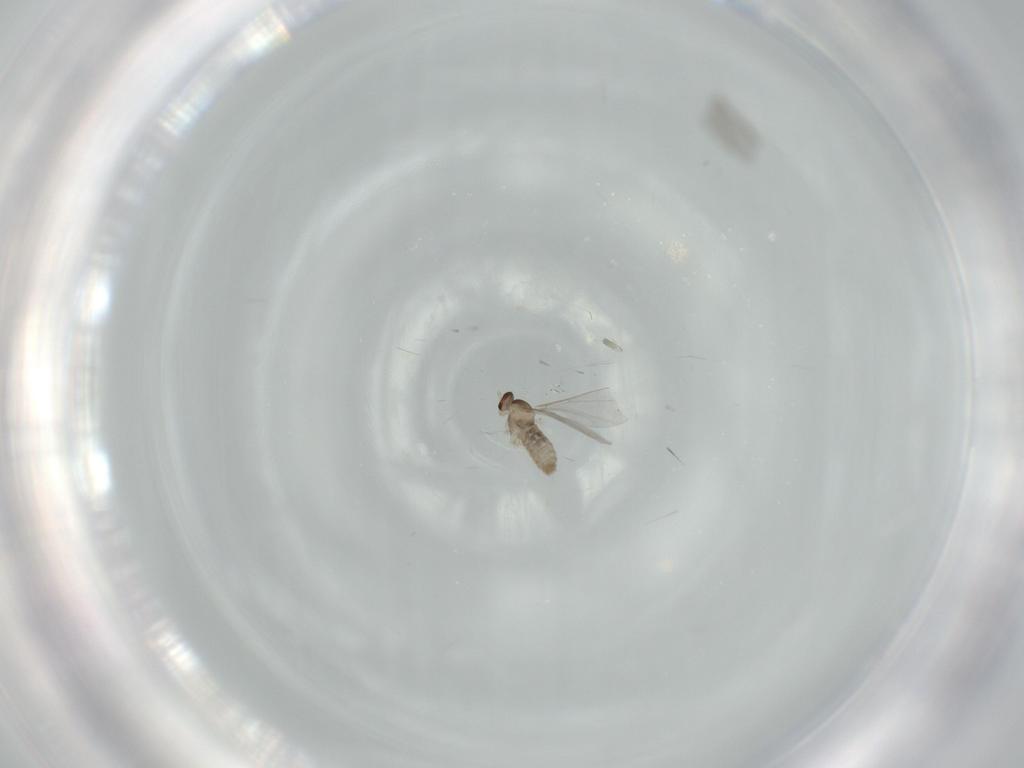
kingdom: Animalia
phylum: Arthropoda
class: Insecta
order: Diptera
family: Cecidomyiidae
